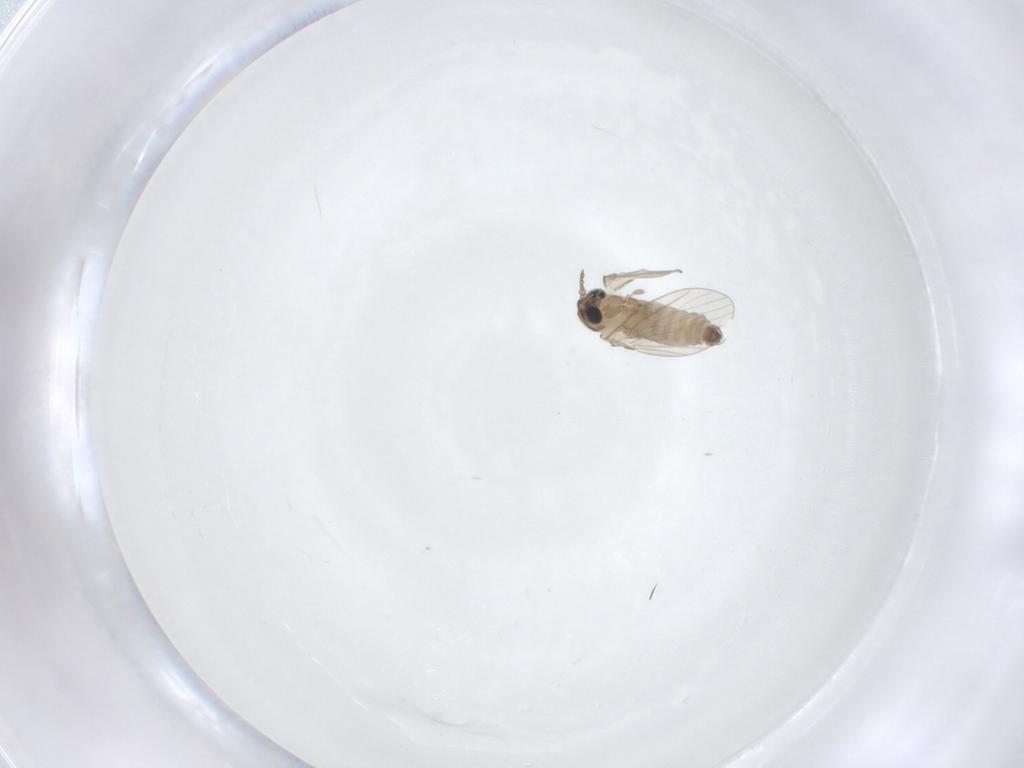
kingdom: Animalia
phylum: Arthropoda
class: Insecta
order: Diptera
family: Psychodidae
